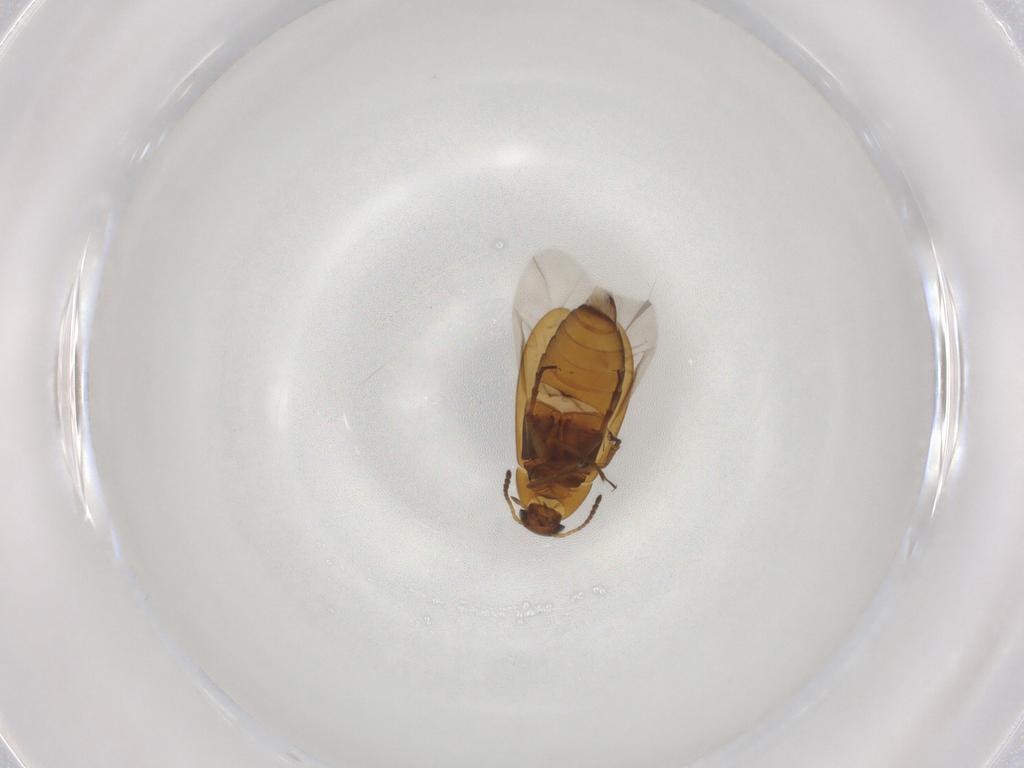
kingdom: Animalia
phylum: Arthropoda
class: Insecta
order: Coleoptera
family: Scraptiidae
